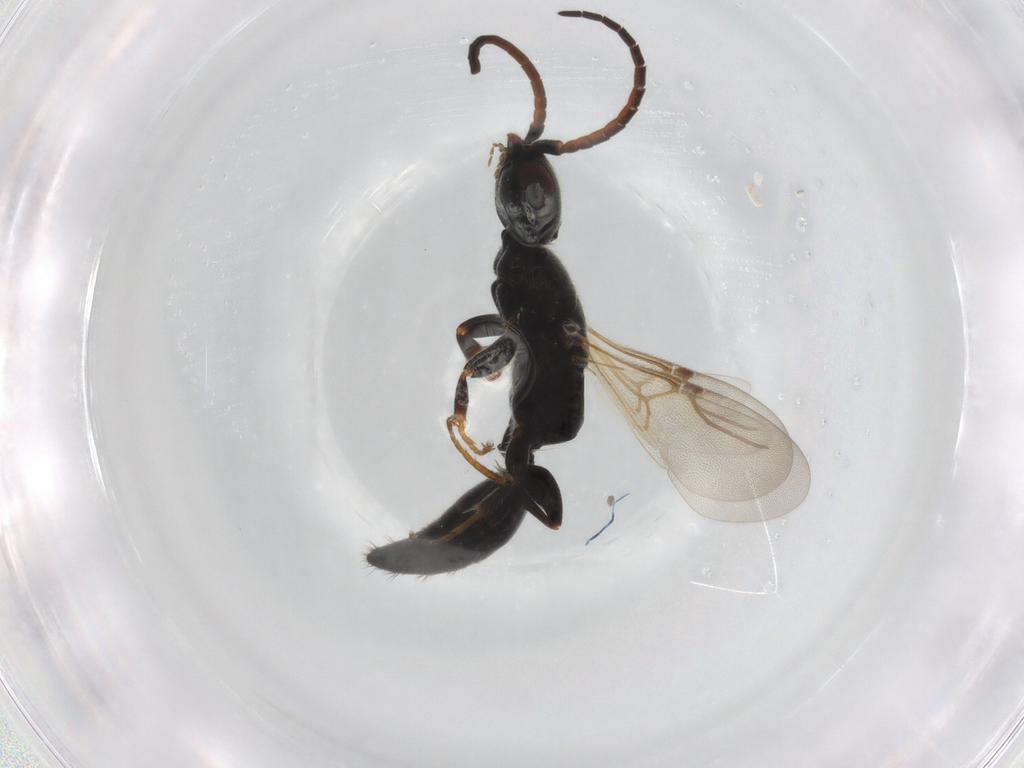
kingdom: Animalia
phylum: Arthropoda
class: Insecta
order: Hymenoptera
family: Bethylidae
